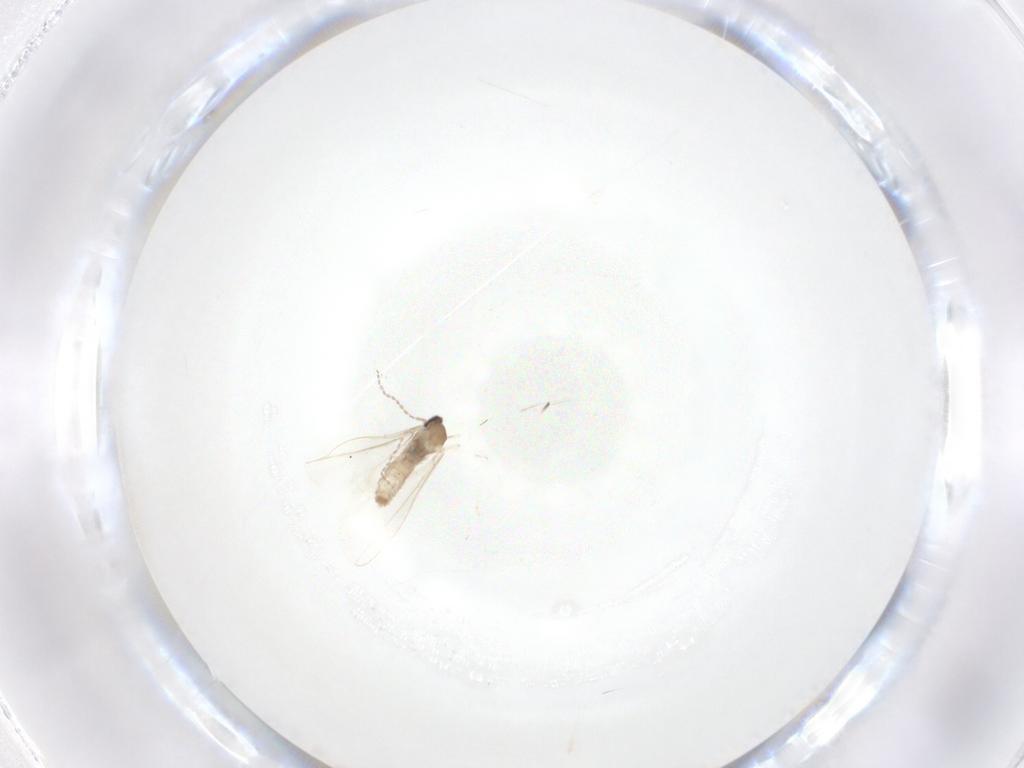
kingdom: Animalia
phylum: Arthropoda
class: Insecta
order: Diptera
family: Cecidomyiidae
